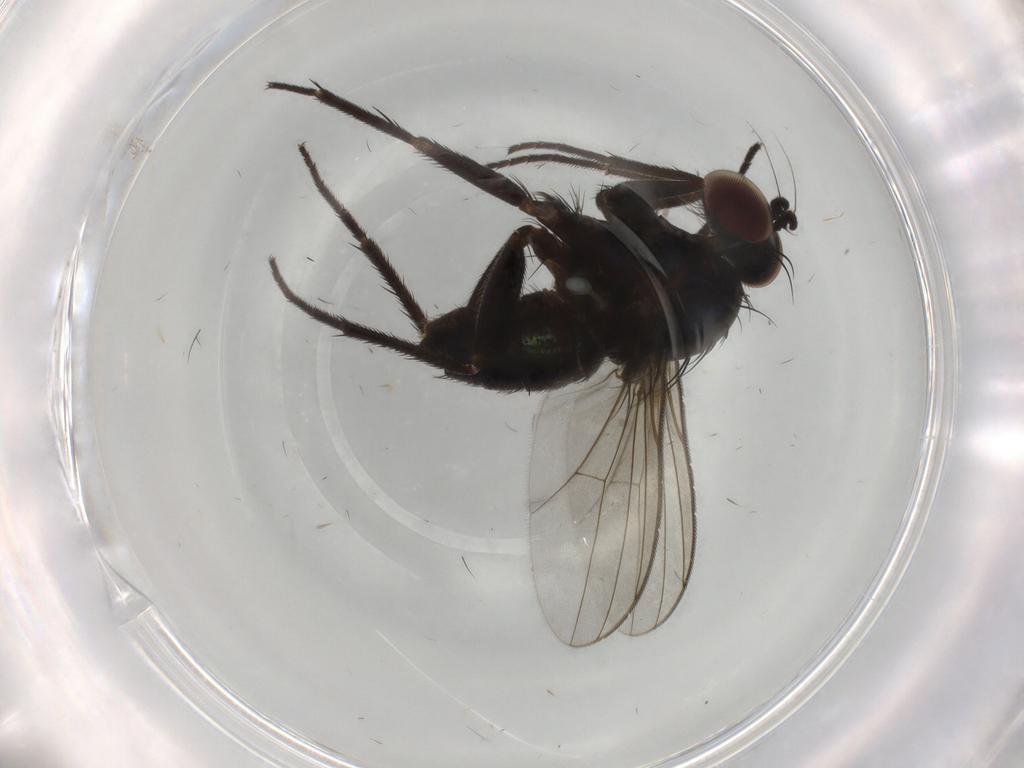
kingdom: Animalia
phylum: Arthropoda
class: Insecta
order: Diptera
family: Dolichopodidae
